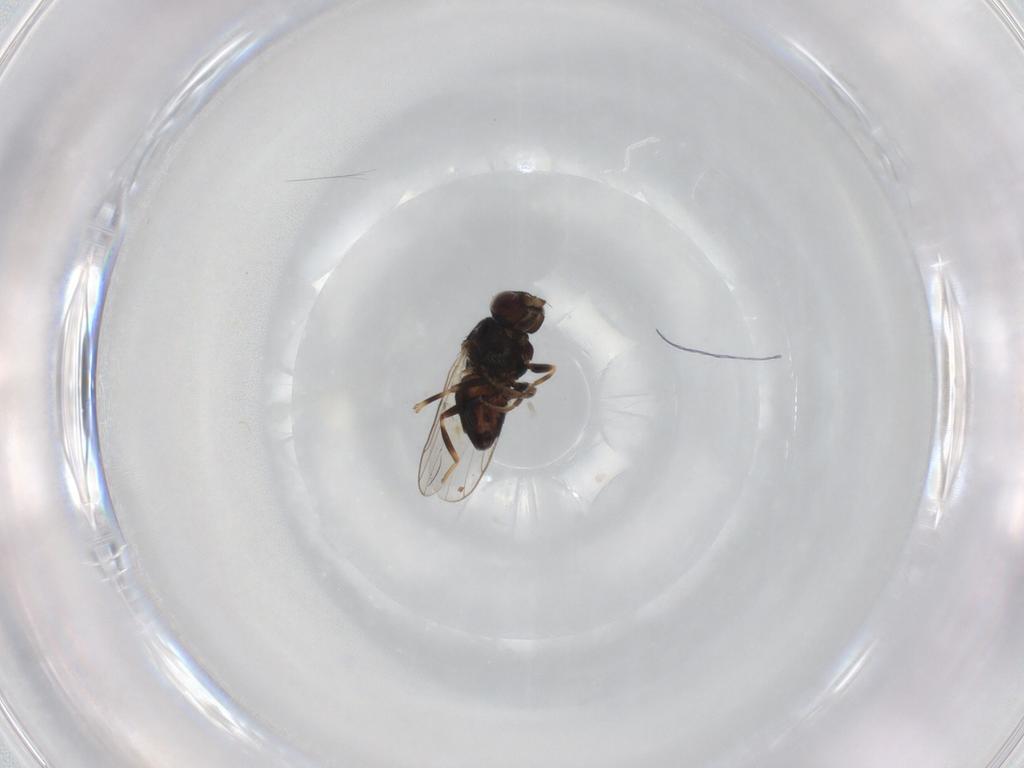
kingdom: Animalia
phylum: Arthropoda
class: Insecta
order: Diptera
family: Chloropidae
